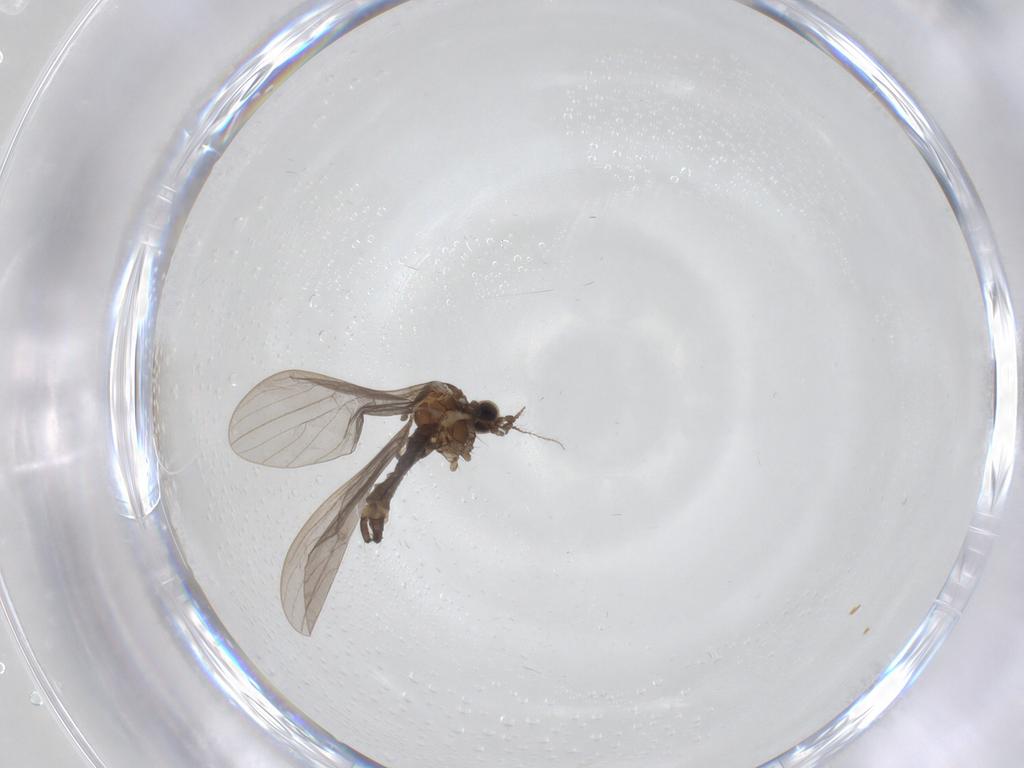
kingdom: Animalia
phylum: Arthropoda
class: Insecta
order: Diptera
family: Limoniidae
